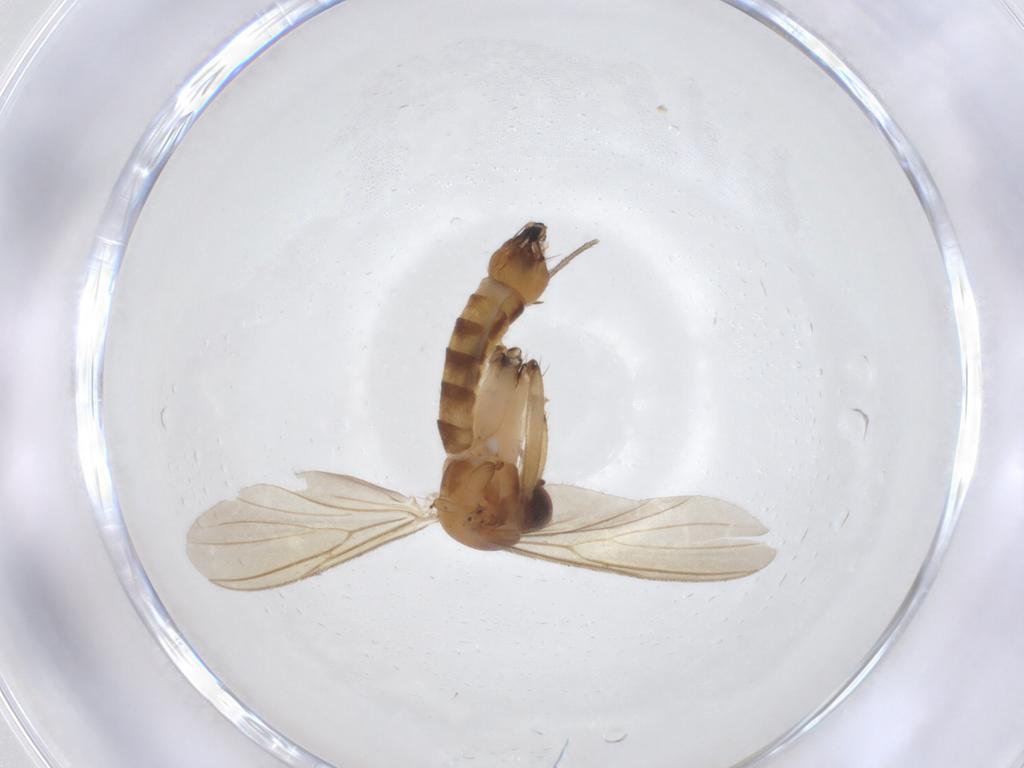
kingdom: Animalia
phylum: Arthropoda
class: Insecta
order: Diptera
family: Mycetophilidae
